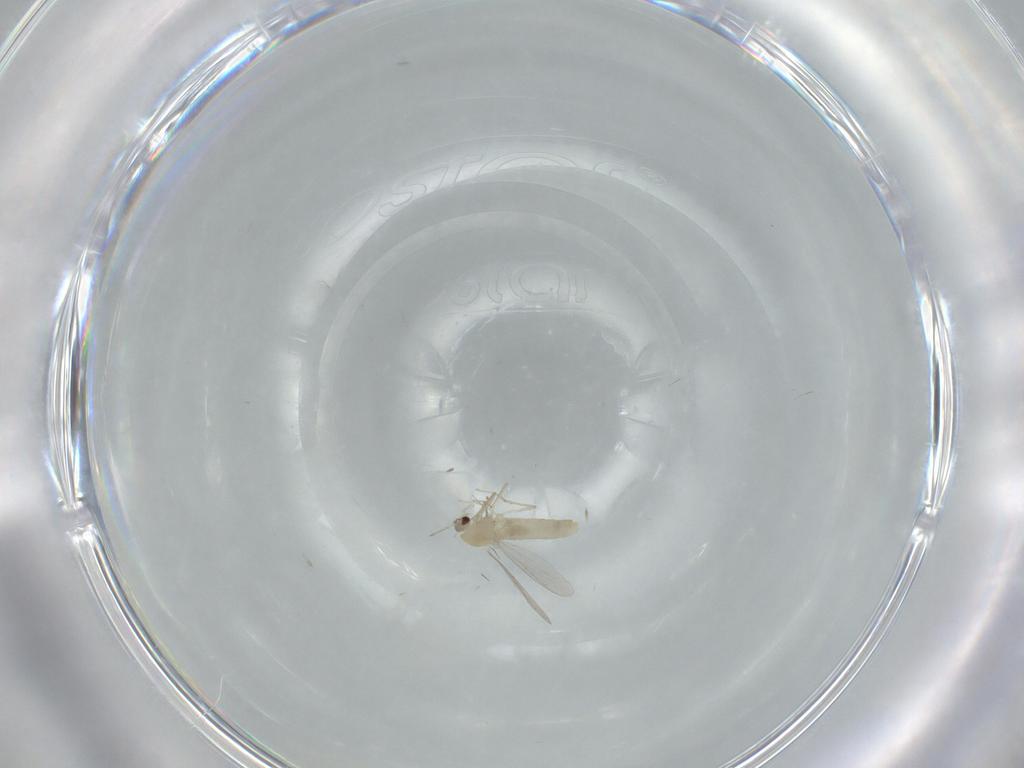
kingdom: Animalia
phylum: Arthropoda
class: Insecta
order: Diptera
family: Chironomidae
